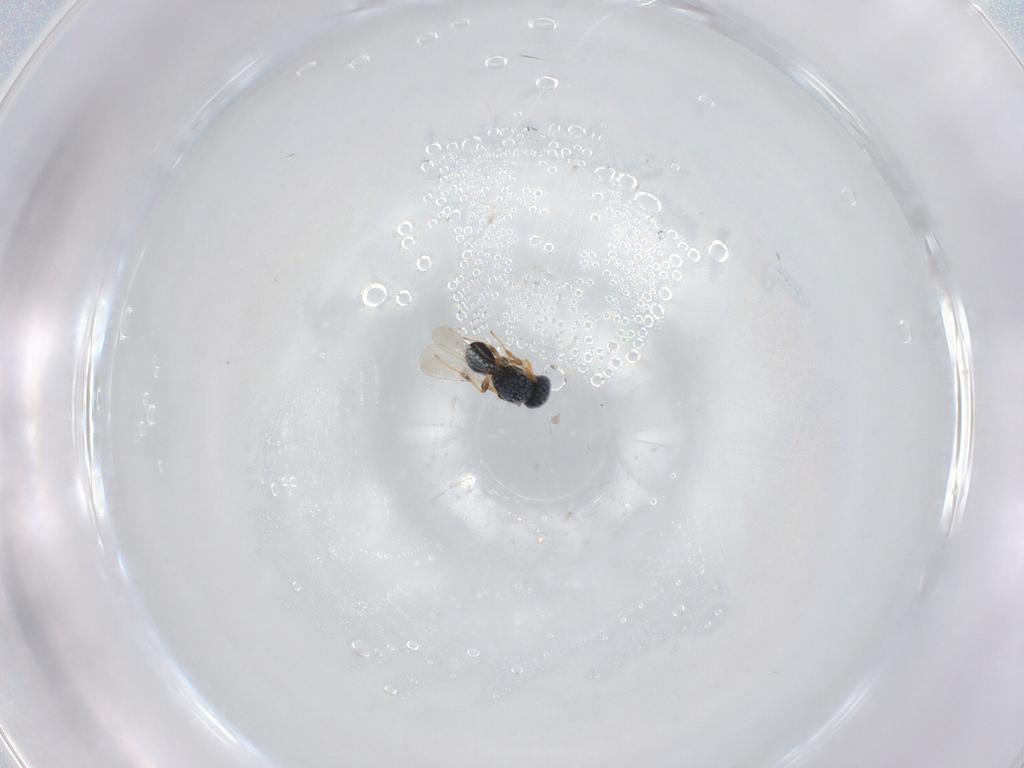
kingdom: Animalia
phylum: Arthropoda
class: Insecta
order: Hymenoptera
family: Platygastridae
